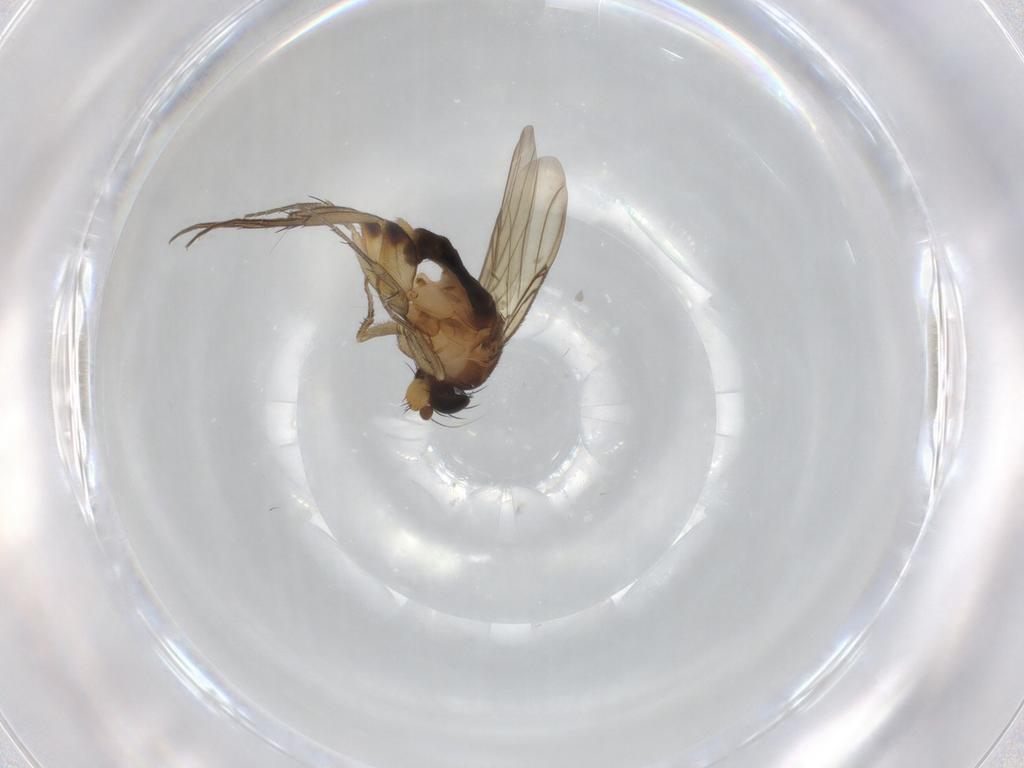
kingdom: Animalia
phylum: Arthropoda
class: Insecta
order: Diptera
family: Phoridae
